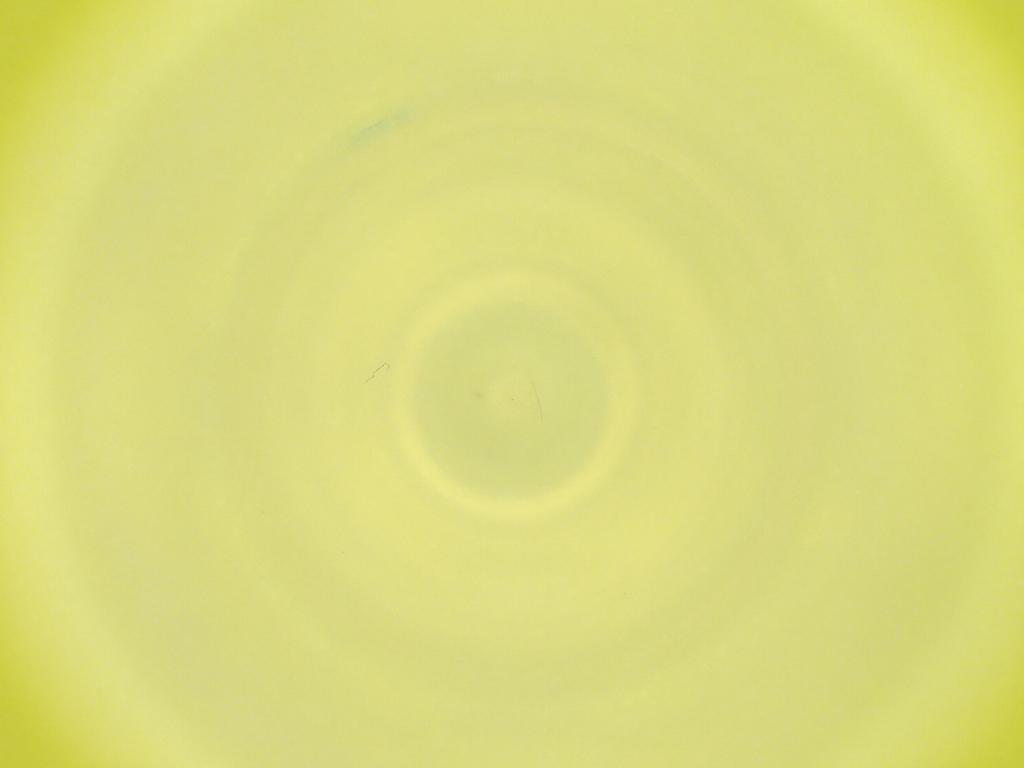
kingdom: Animalia
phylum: Arthropoda
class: Insecta
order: Diptera
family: Cecidomyiidae
